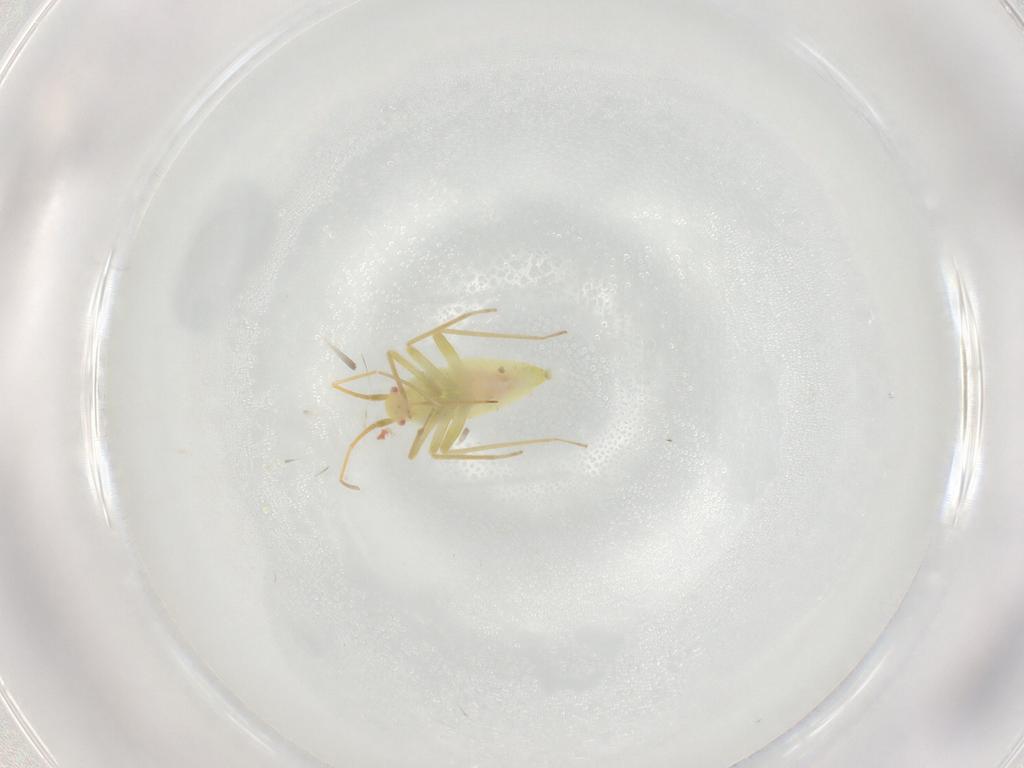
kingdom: Animalia
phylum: Arthropoda
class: Insecta
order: Hemiptera
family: Miridae
